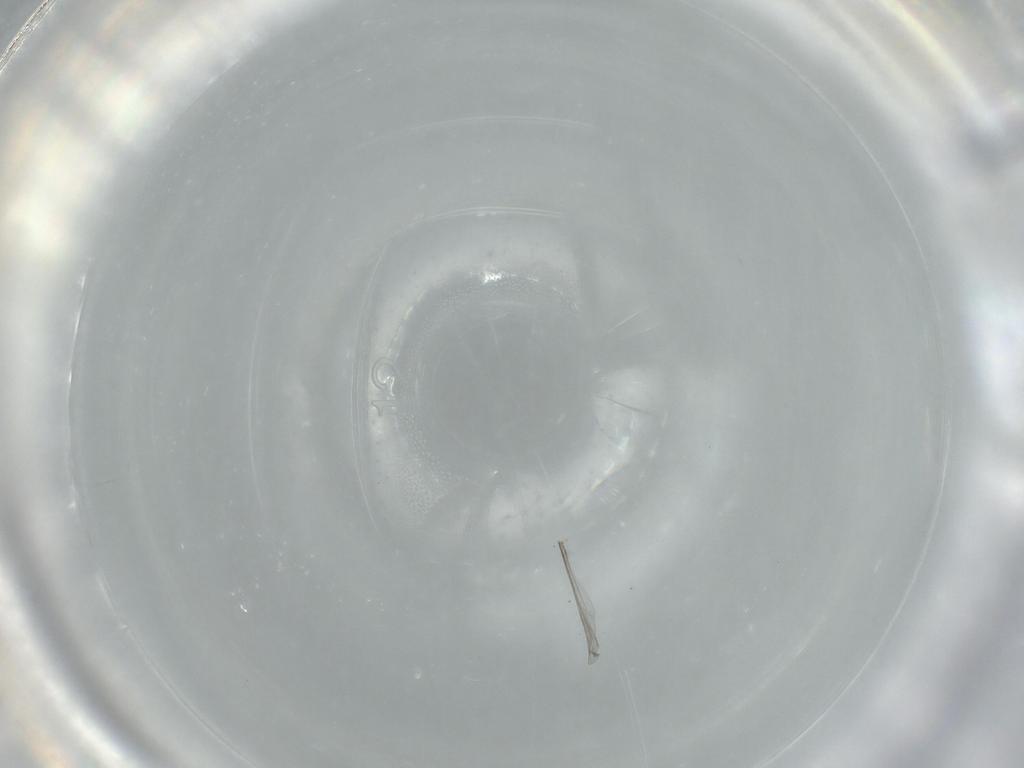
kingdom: Animalia
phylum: Arthropoda
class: Insecta
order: Diptera
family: Cecidomyiidae
